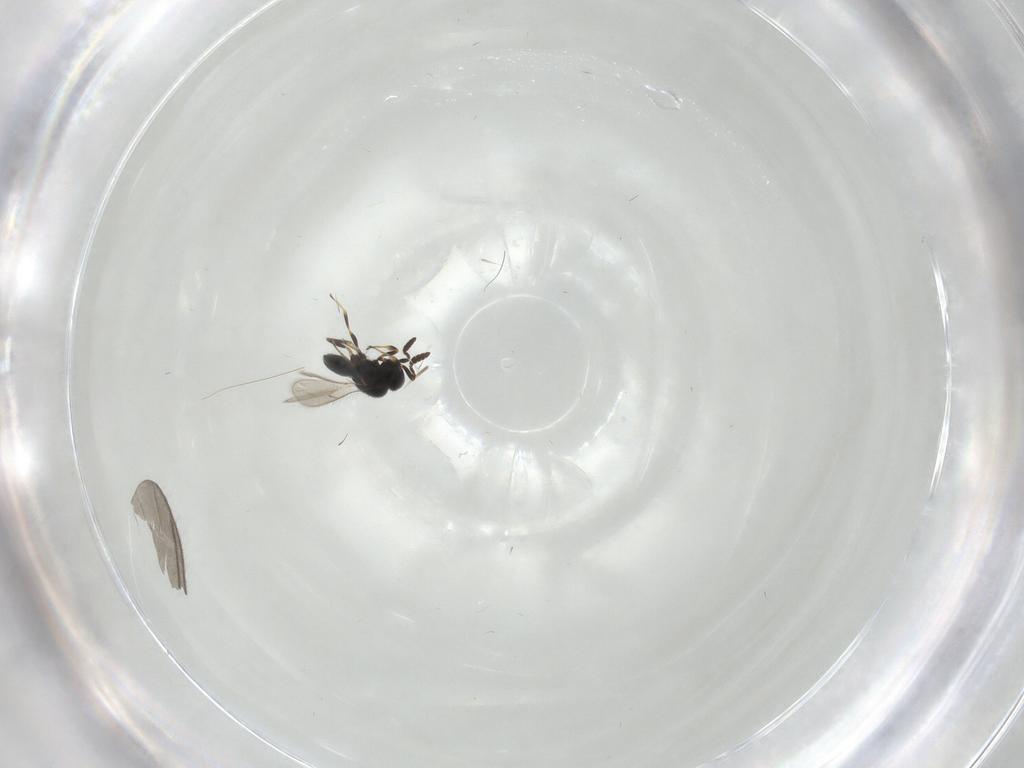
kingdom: Animalia
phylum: Arthropoda
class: Insecta
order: Hymenoptera
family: Scelionidae
